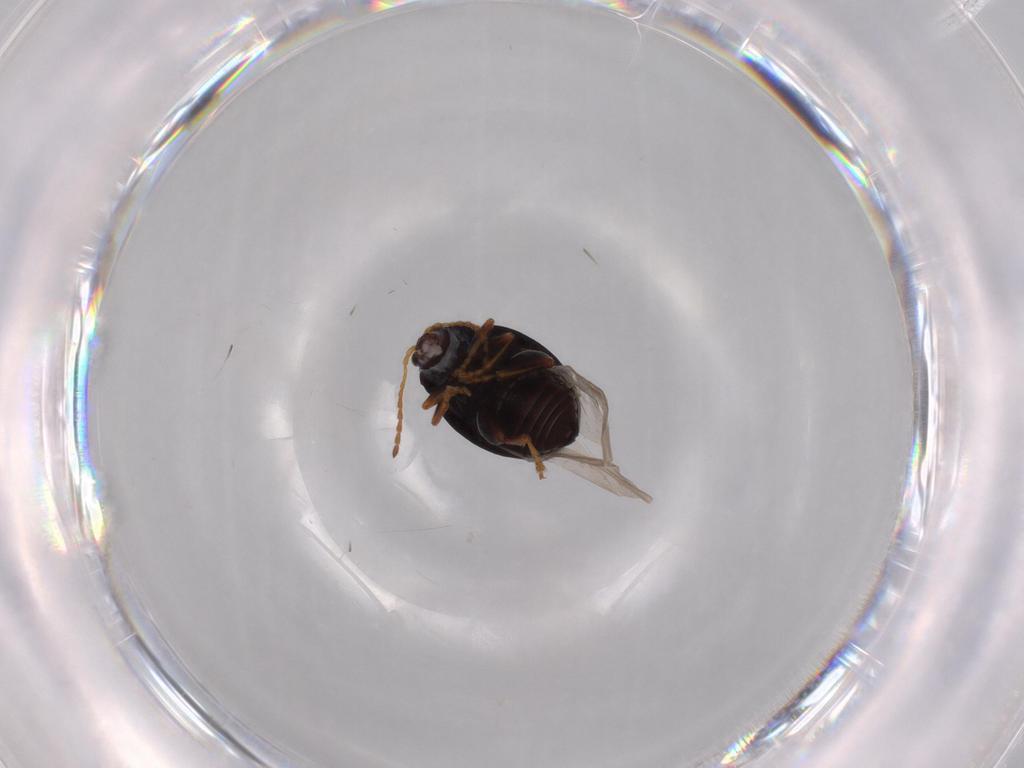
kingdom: Animalia
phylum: Arthropoda
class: Insecta
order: Coleoptera
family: Chrysomelidae
